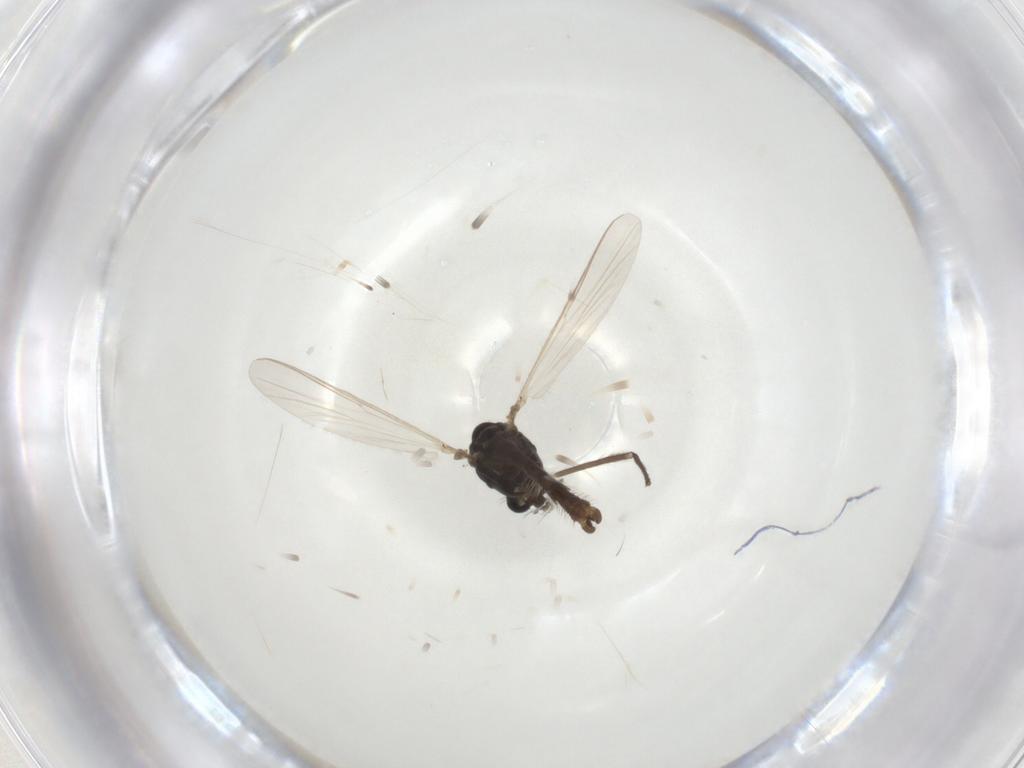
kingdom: Animalia
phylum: Arthropoda
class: Insecta
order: Diptera
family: Chironomidae
